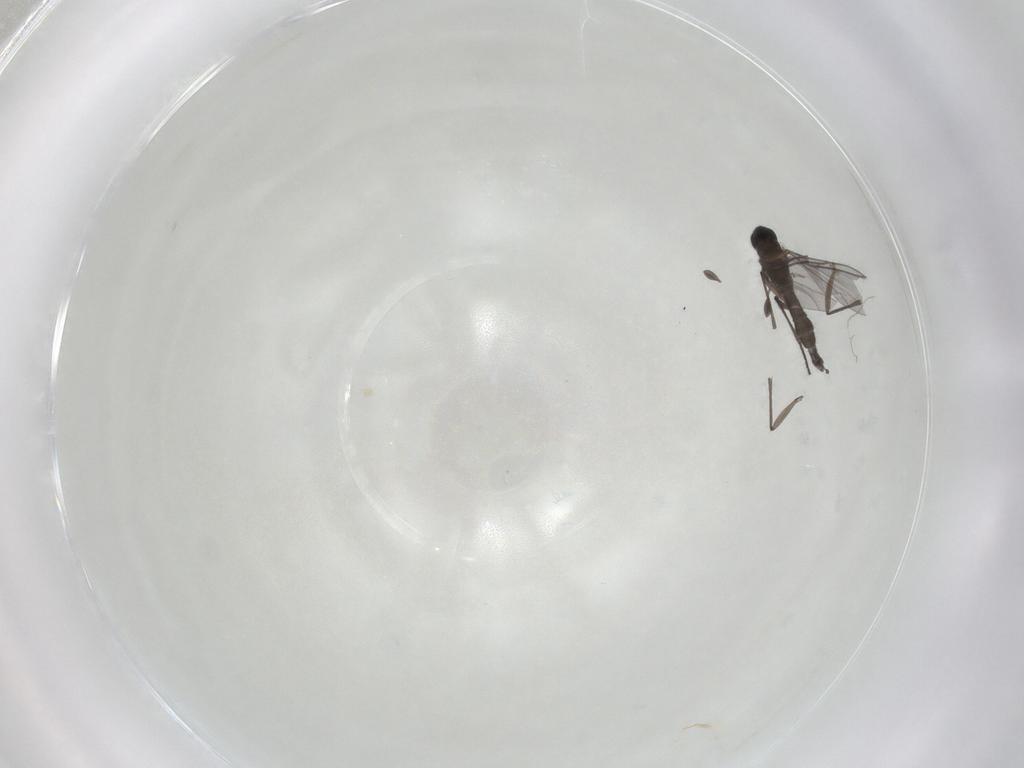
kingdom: Animalia
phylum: Arthropoda
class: Insecta
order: Diptera
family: Sciaridae
